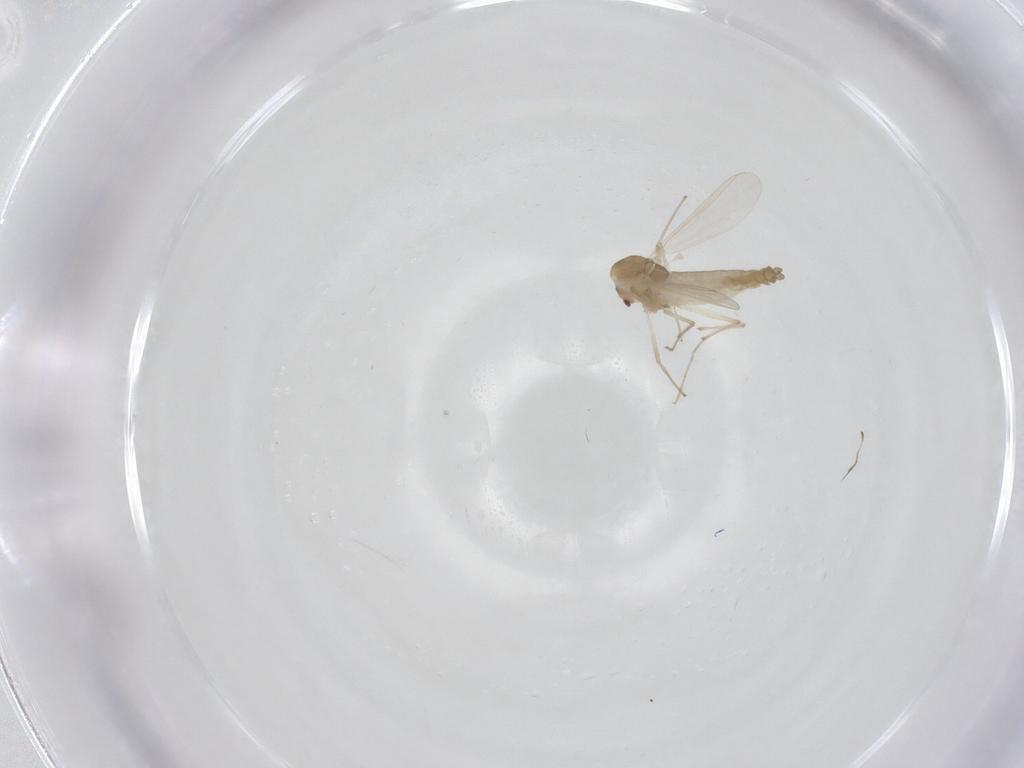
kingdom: Animalia
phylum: Arthropoda
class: Insecta
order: Diptera
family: Chironomidae
